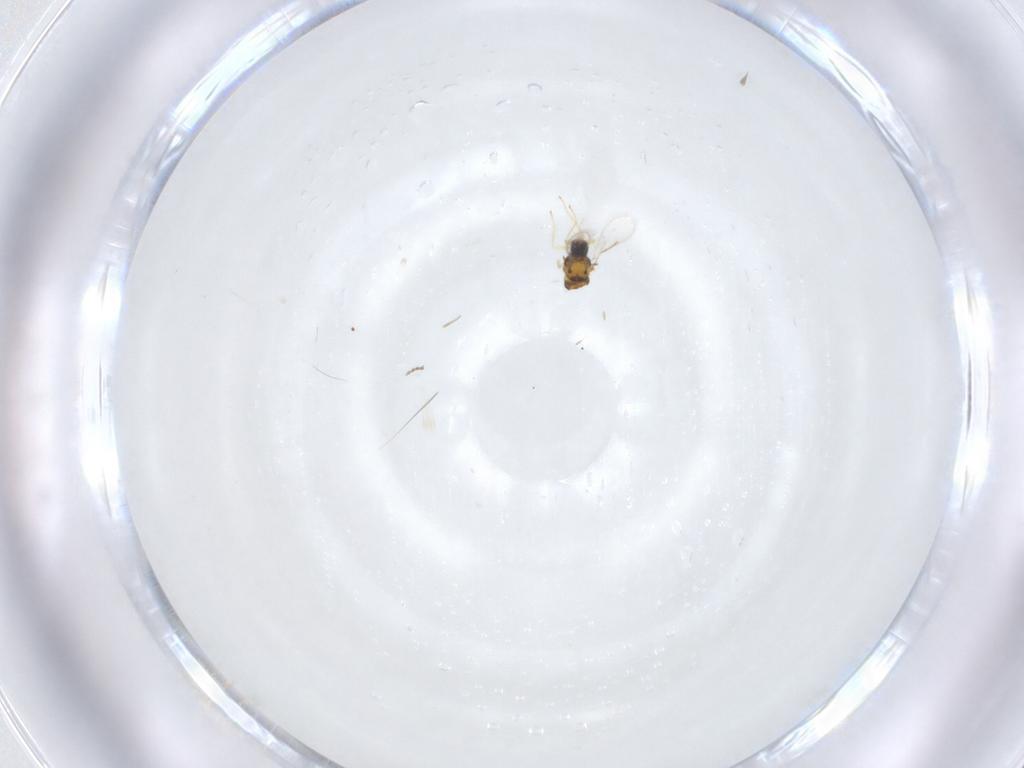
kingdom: Animalia
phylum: Arthropoda
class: Insecta
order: Hymenoptera
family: Aphelinidae
